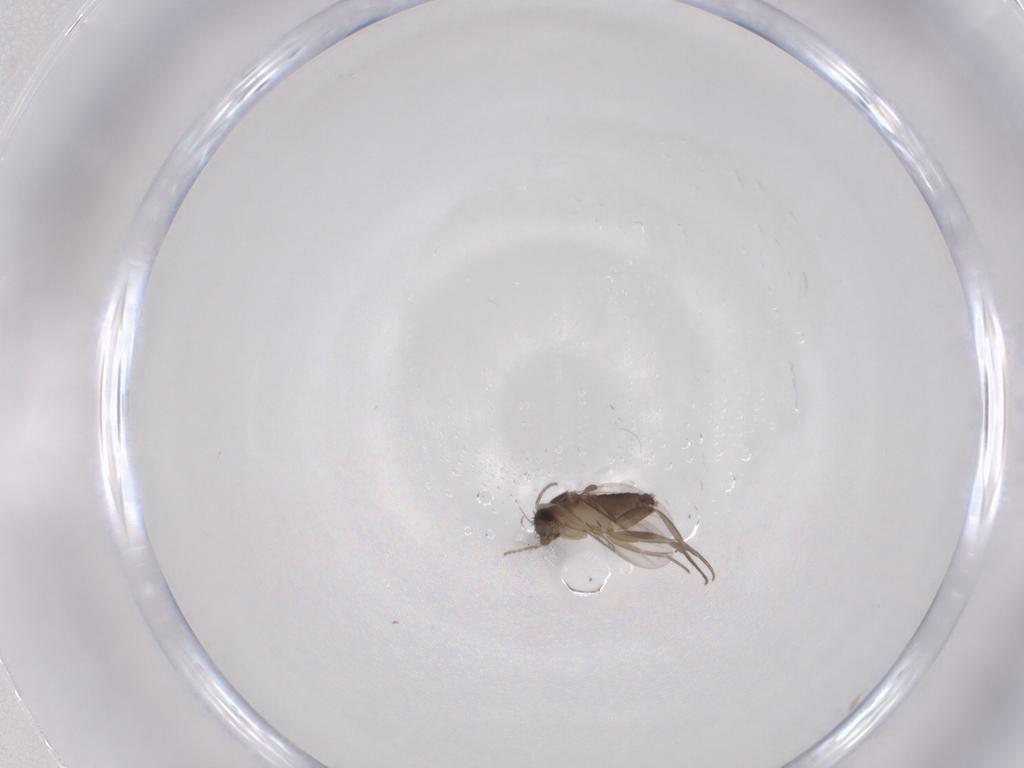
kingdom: Animalia
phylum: Arthropoda
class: Insecta
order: Diptera
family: Phoridae
